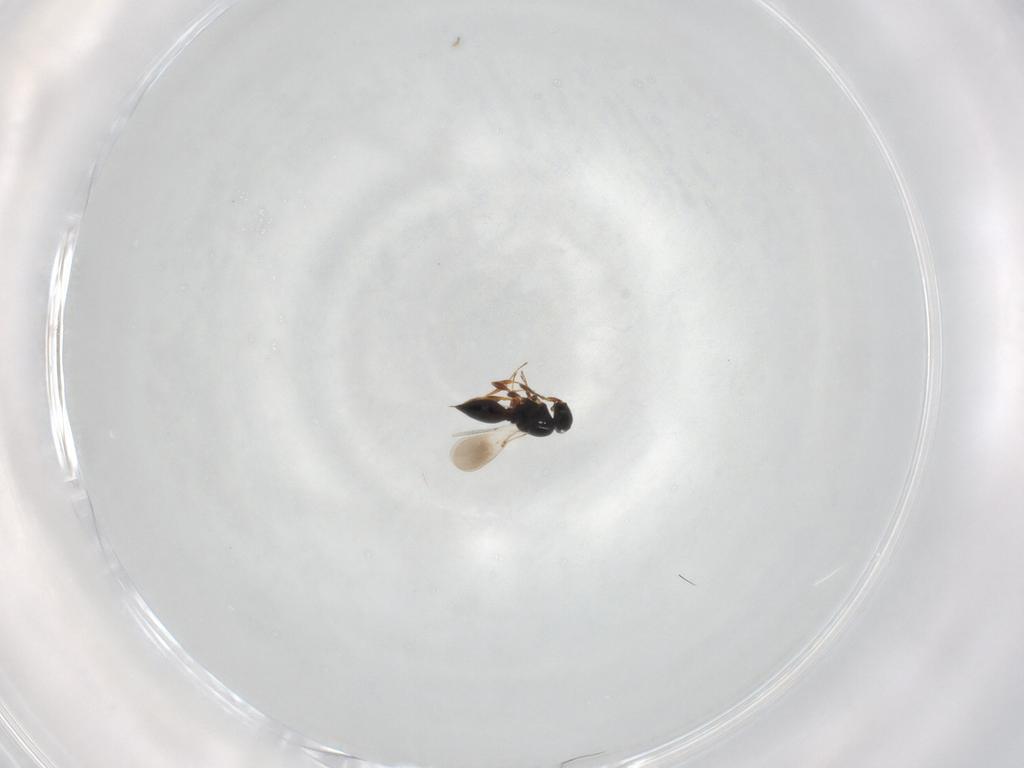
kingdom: Animalia
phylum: Arthropoda
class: Insecta
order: Hymenoptera
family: Platygastridae
